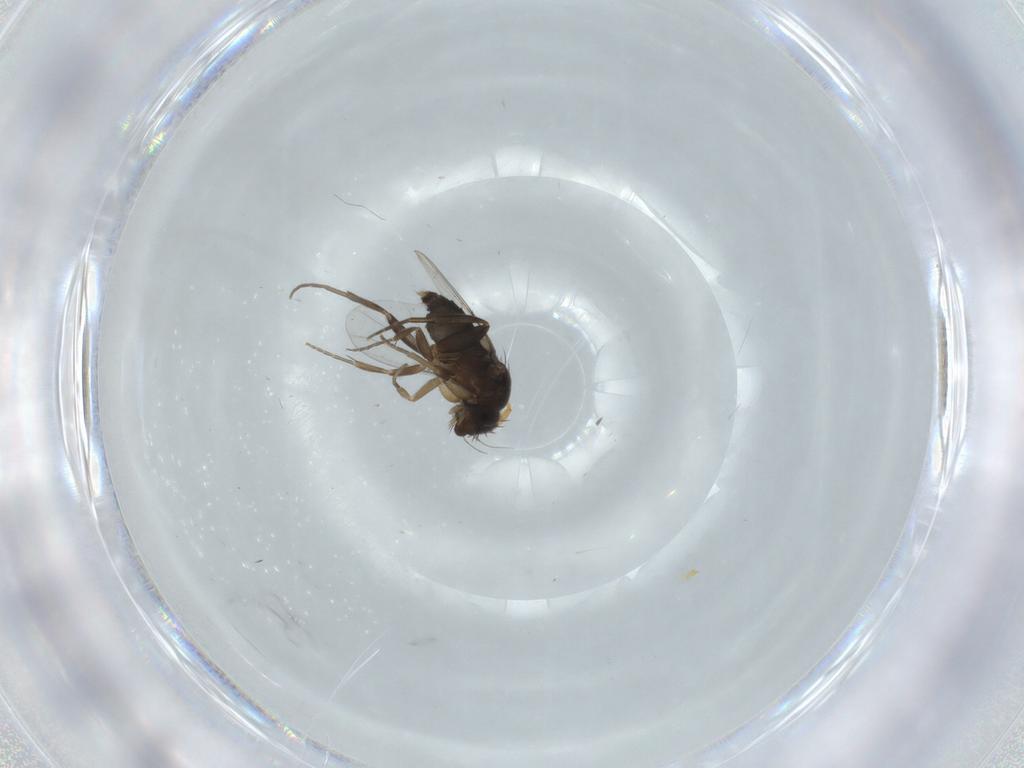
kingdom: Animalia
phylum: Arthropoda
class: Insecta
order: Diptera
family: Phoridae
